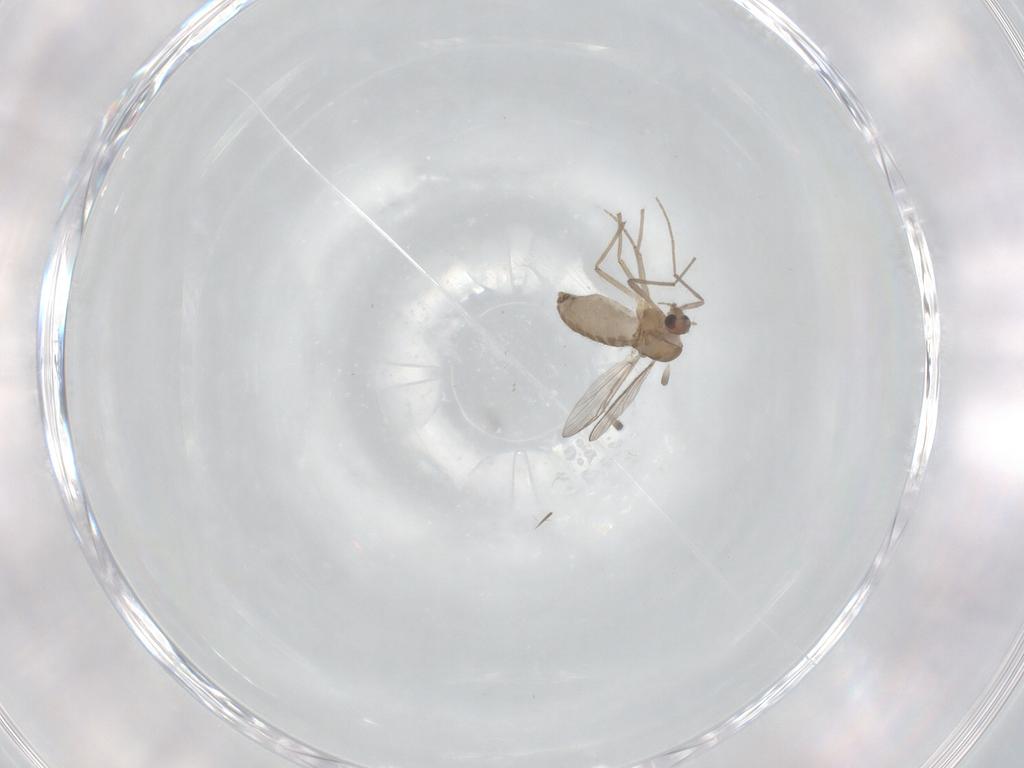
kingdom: Animalia
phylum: Arthropoda
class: Insecta
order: Diptera
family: Chironomidae
